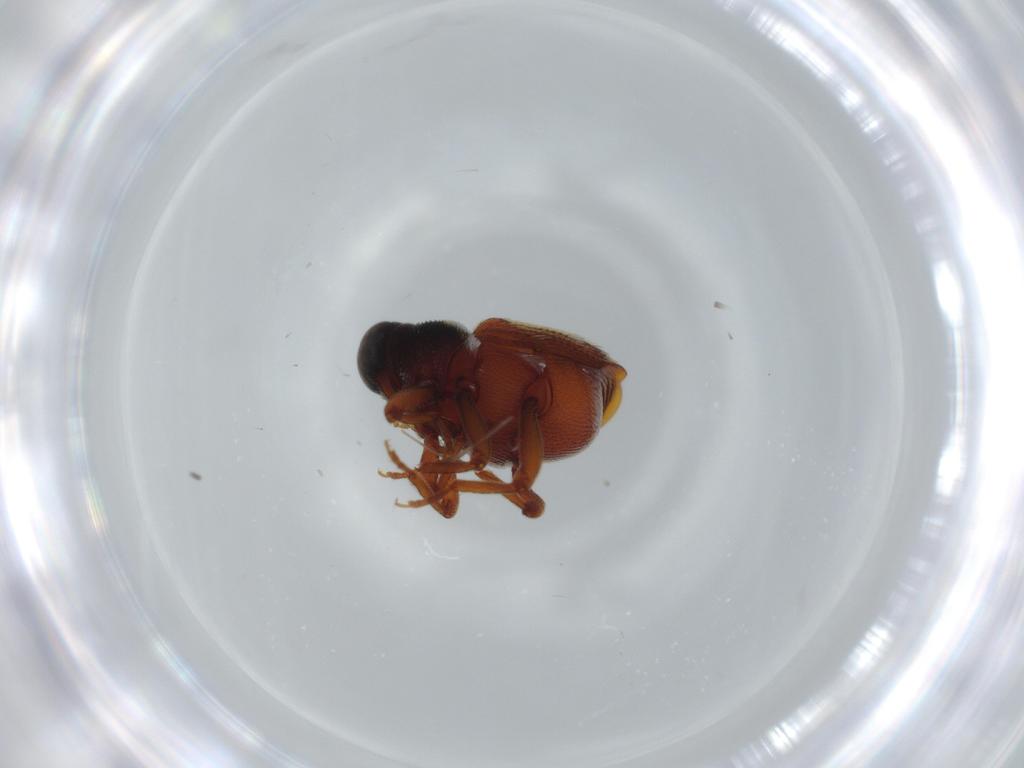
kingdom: Animalia
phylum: Arthropoda
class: Insecta
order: Coleoptera
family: Curculionidae
